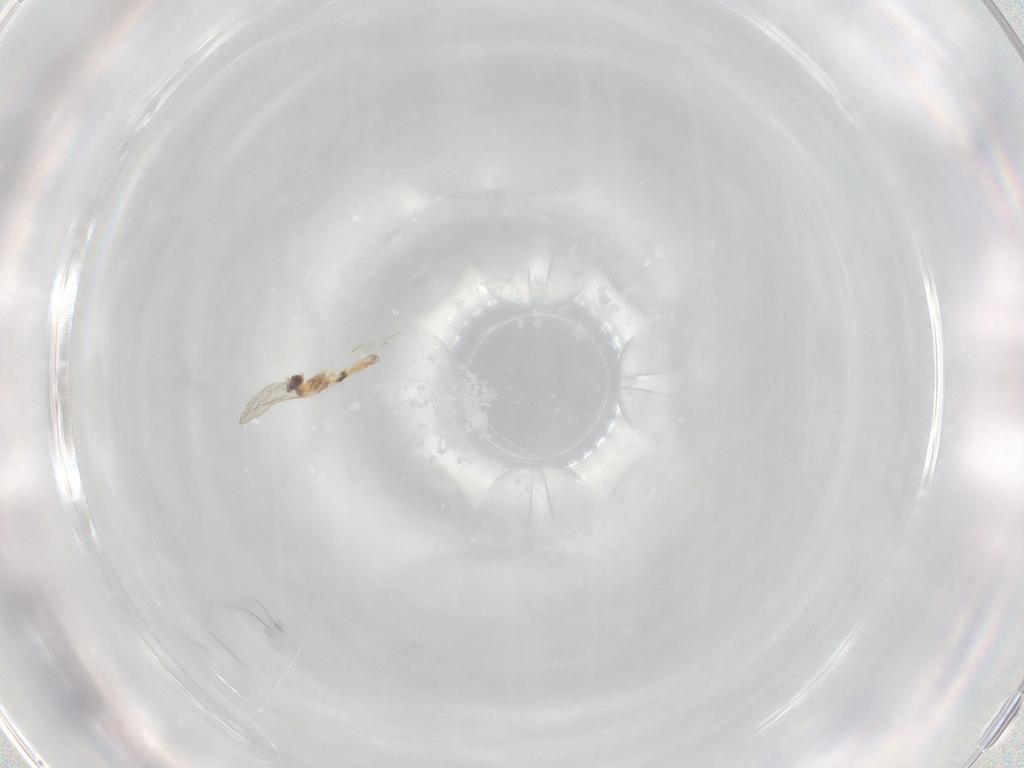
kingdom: Animalia
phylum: Arthropoda
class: Insecta
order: Diptera
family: Cecidomyiidae
